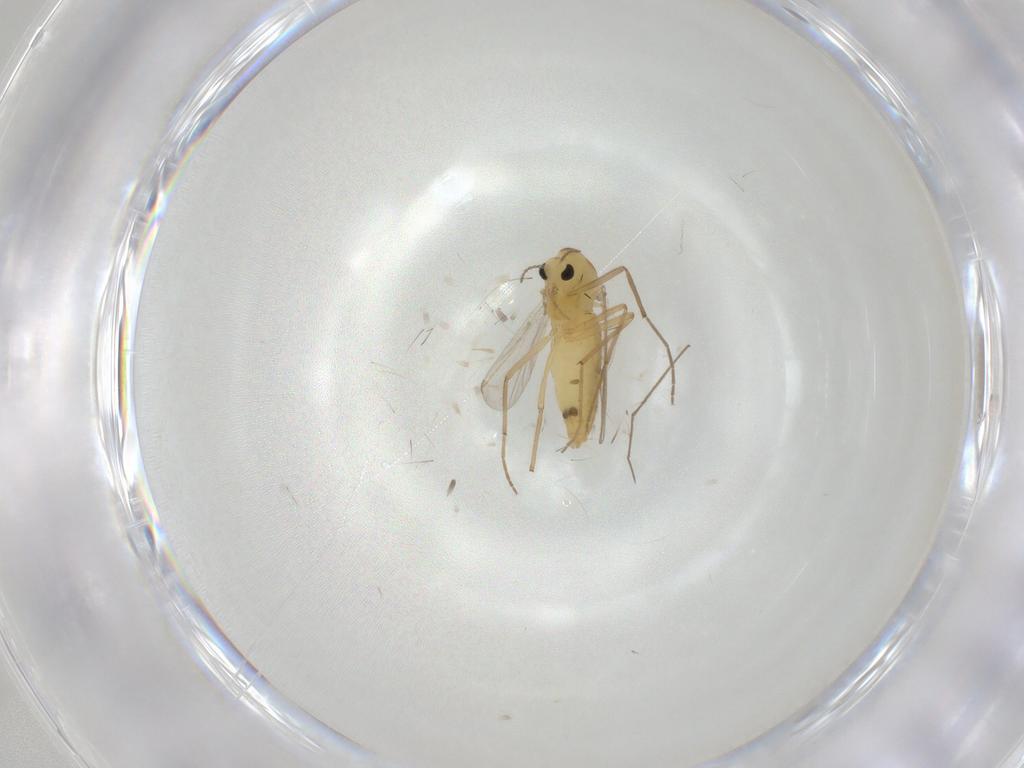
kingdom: Animalia
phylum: Arthropoda
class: Insecta
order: Diptera
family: Chironomidae
